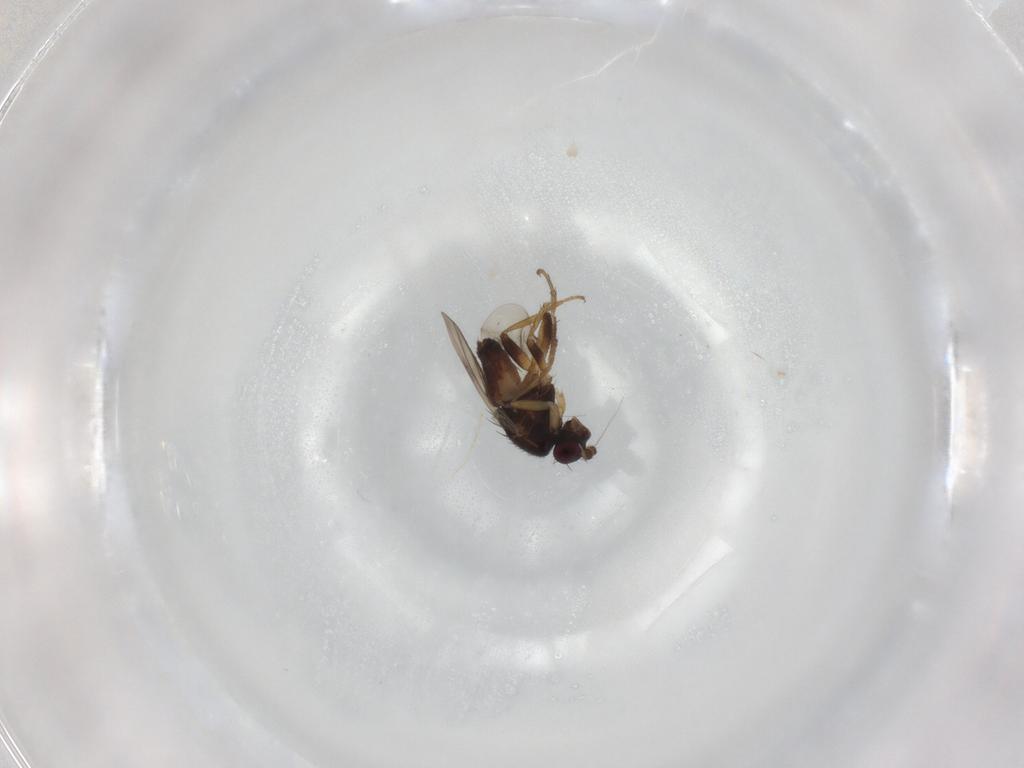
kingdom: Animalia
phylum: Arthropoda
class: Insecta
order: Diptera
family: Sphaeroceridae
